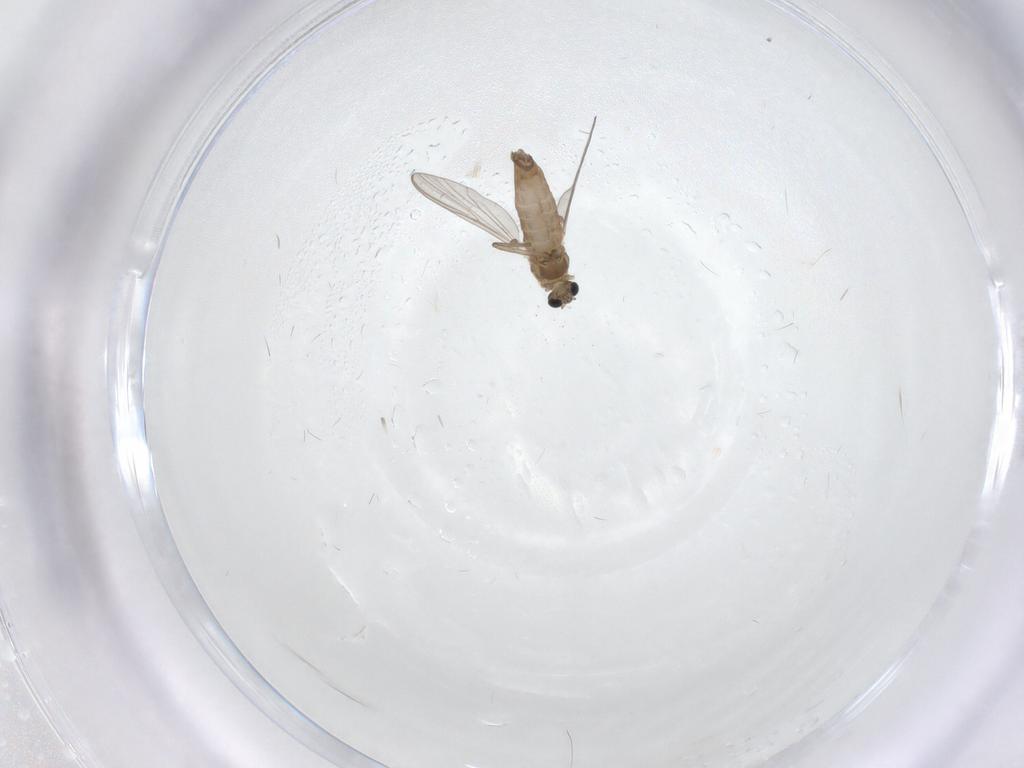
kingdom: Animalia
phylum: Arthropoda
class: Insecta
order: Diptera
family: Chironomidae
